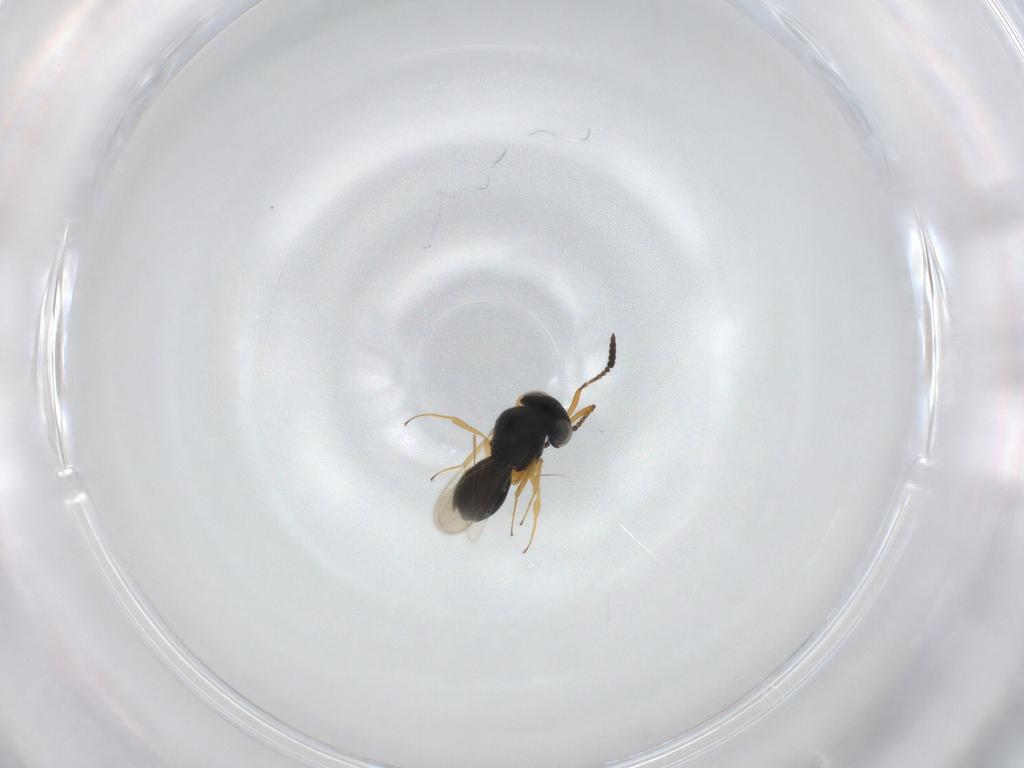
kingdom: Animalia
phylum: Arthropoda
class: Insecta
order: Hymenoptera
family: Scelionidae
